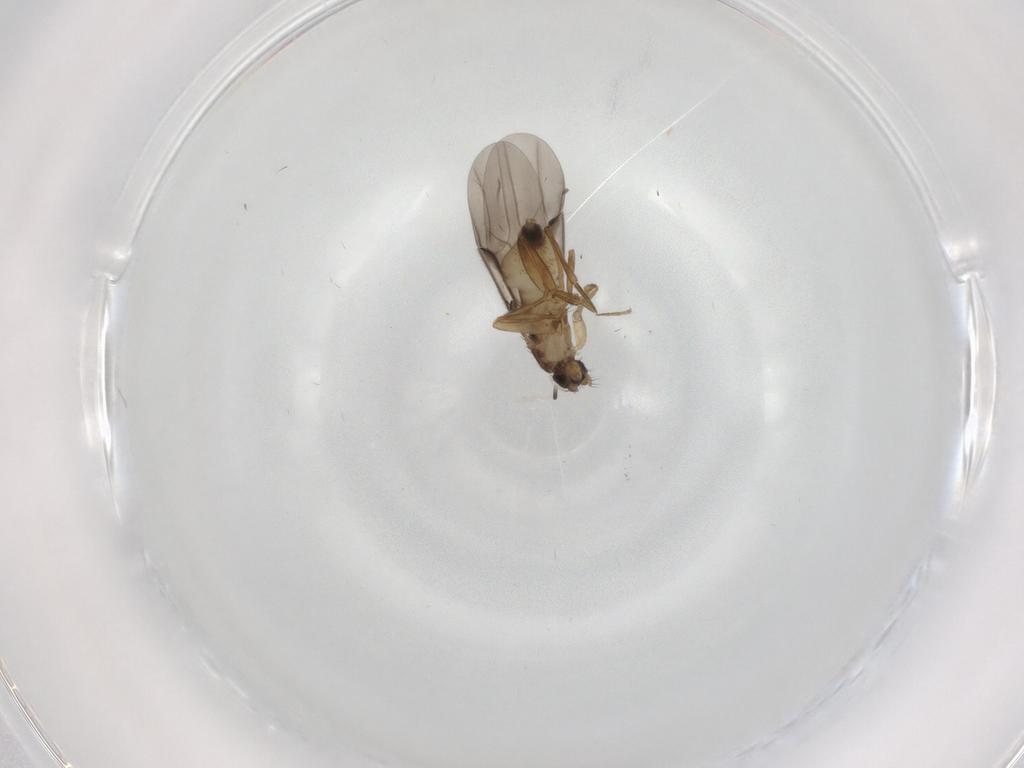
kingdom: Animalia
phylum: Arthropoda
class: Insecta
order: Diptera
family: Phoridae
